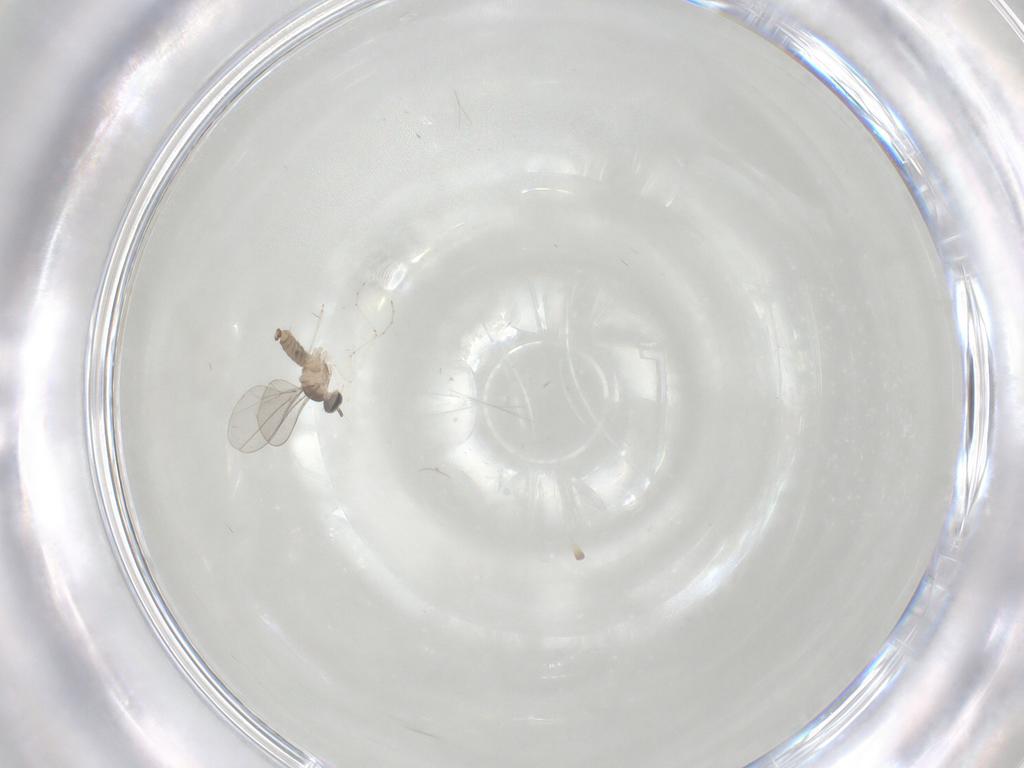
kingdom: Animalia
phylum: Arthropoda
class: Insecta
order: Diptera
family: Cecidomyiidae
